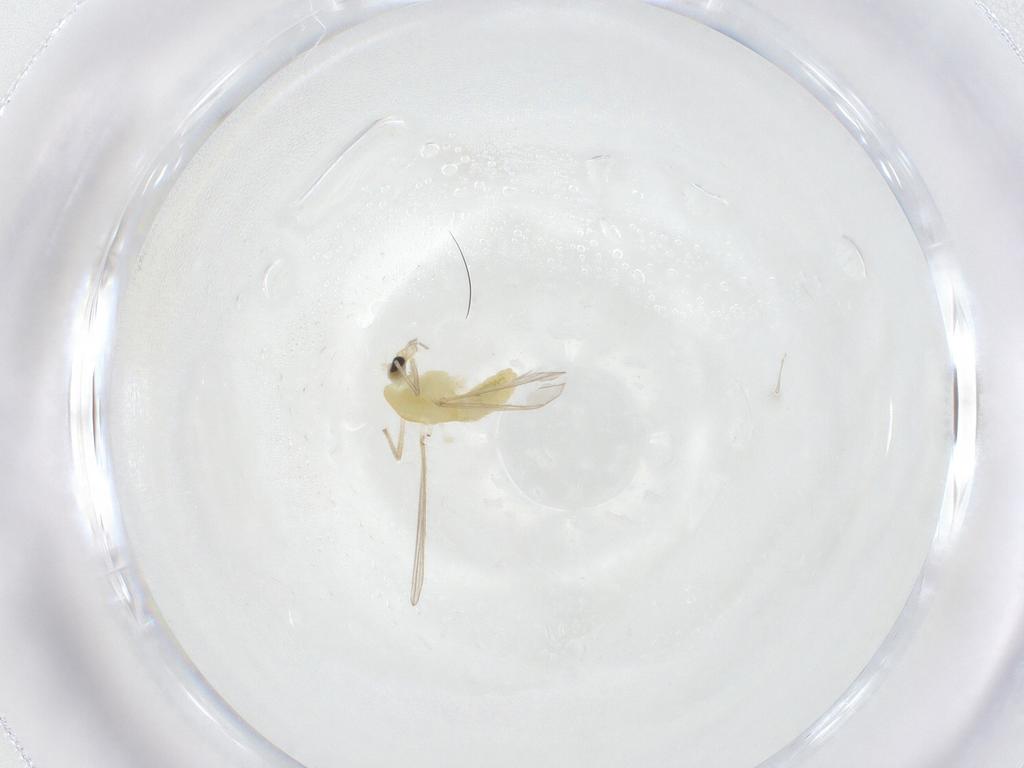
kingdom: Animalia
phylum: Arthropoda
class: Insecta
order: Diptera
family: Chironomidae
